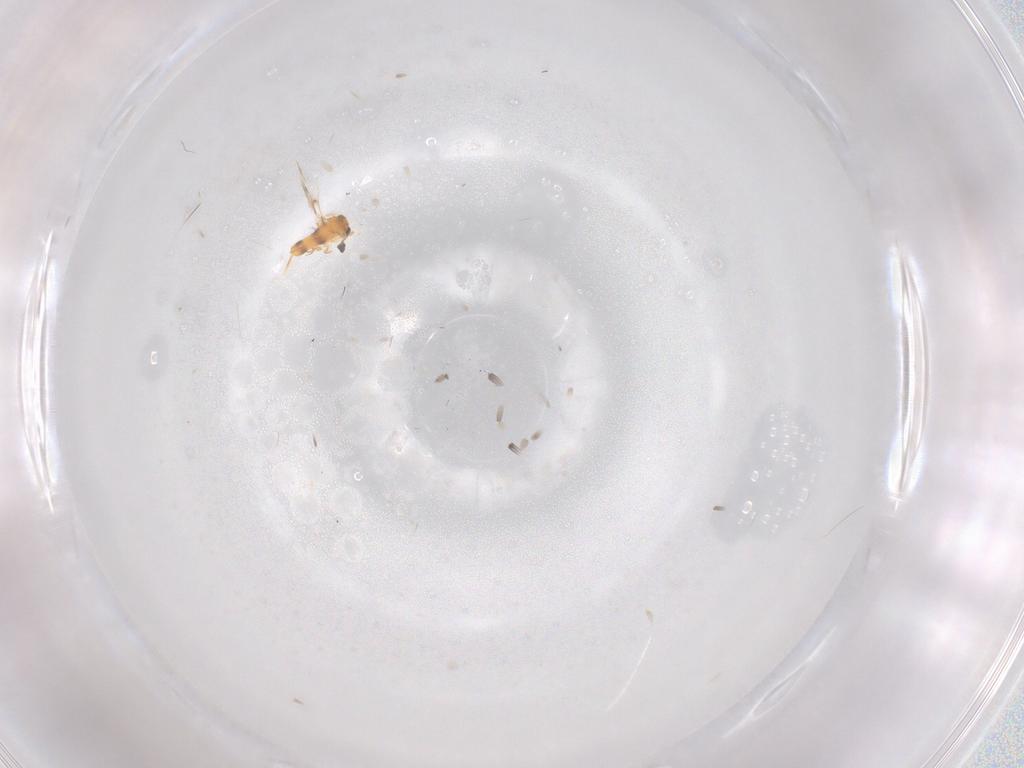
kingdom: Animalia
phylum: Arthropoda
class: Insecta
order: Hymenoptera
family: Aphelinidae
